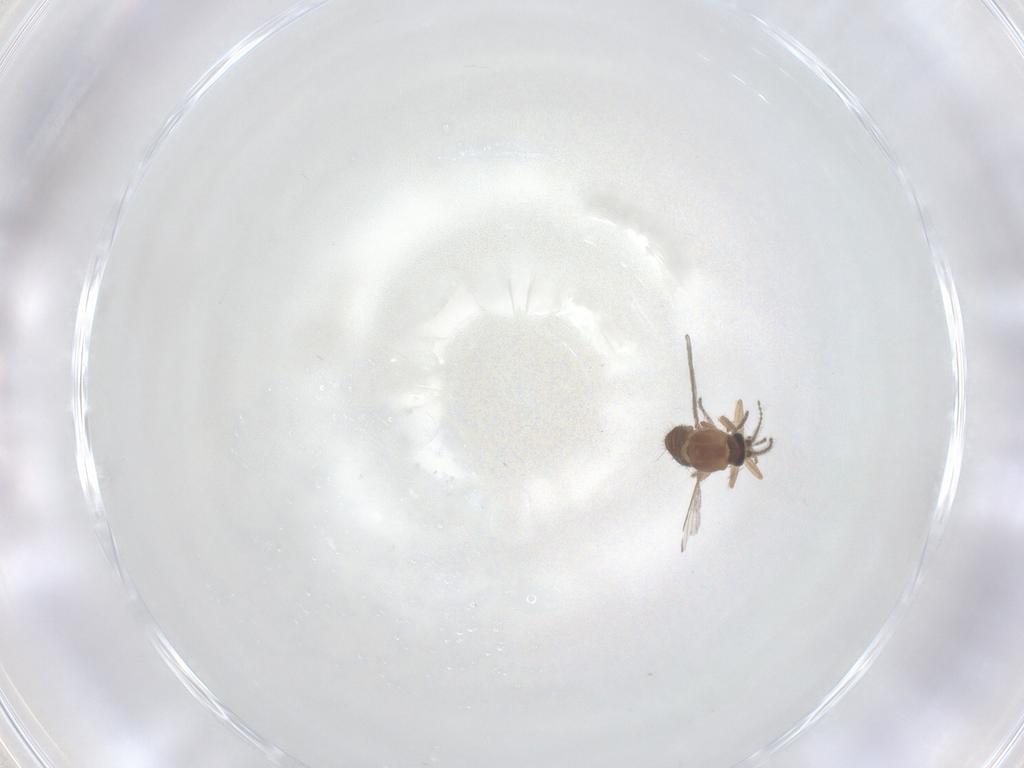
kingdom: Animalia
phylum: Arthropoda
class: Insecta
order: Diptera
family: Ceratopogonidae
